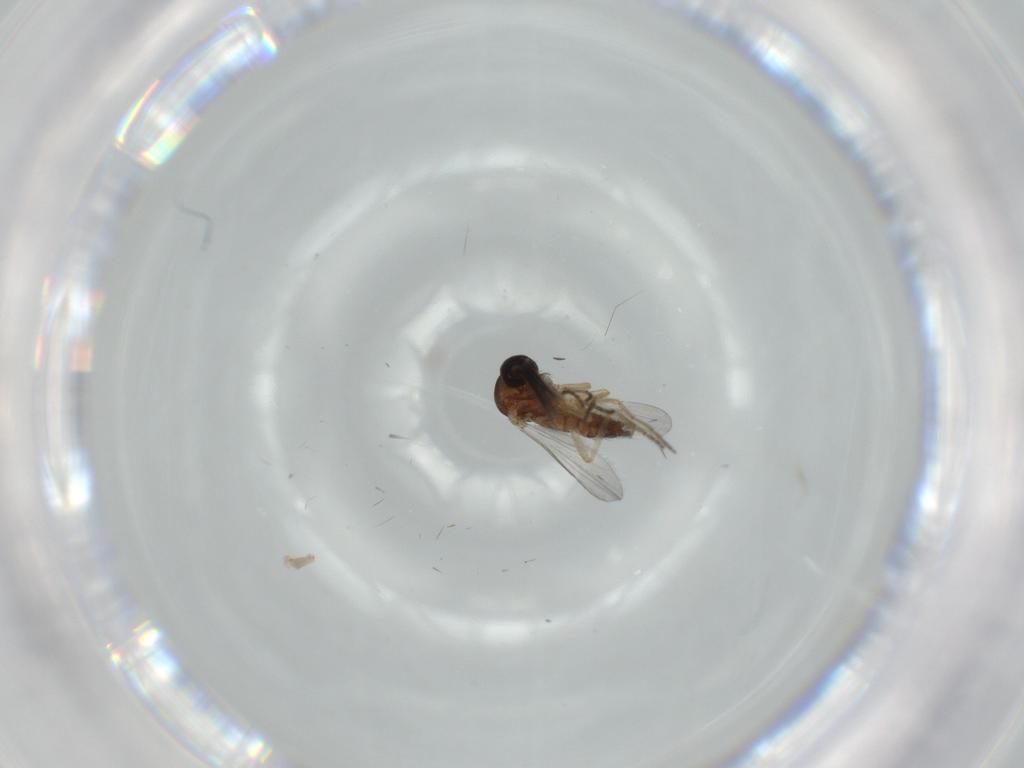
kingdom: Animalia
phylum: Arthropoda
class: Insecta
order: Diptera
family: Ceratopogonidae
